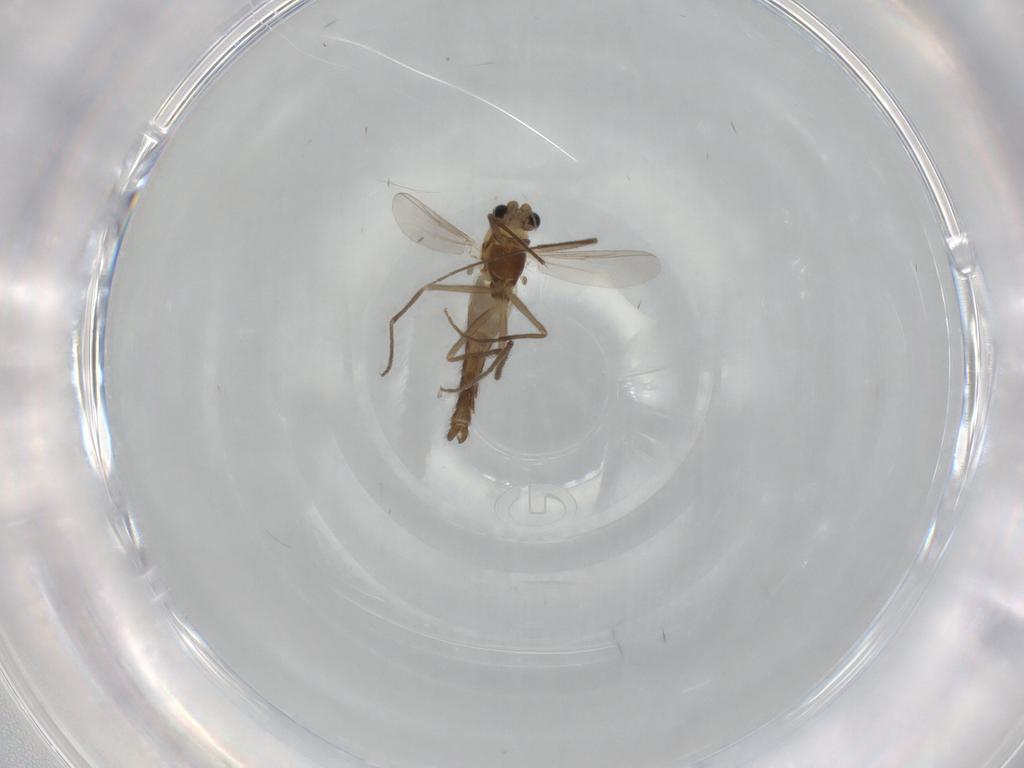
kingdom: Animalia
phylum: Arthropoda
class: Insecta
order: Diptera
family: Chironomidae
